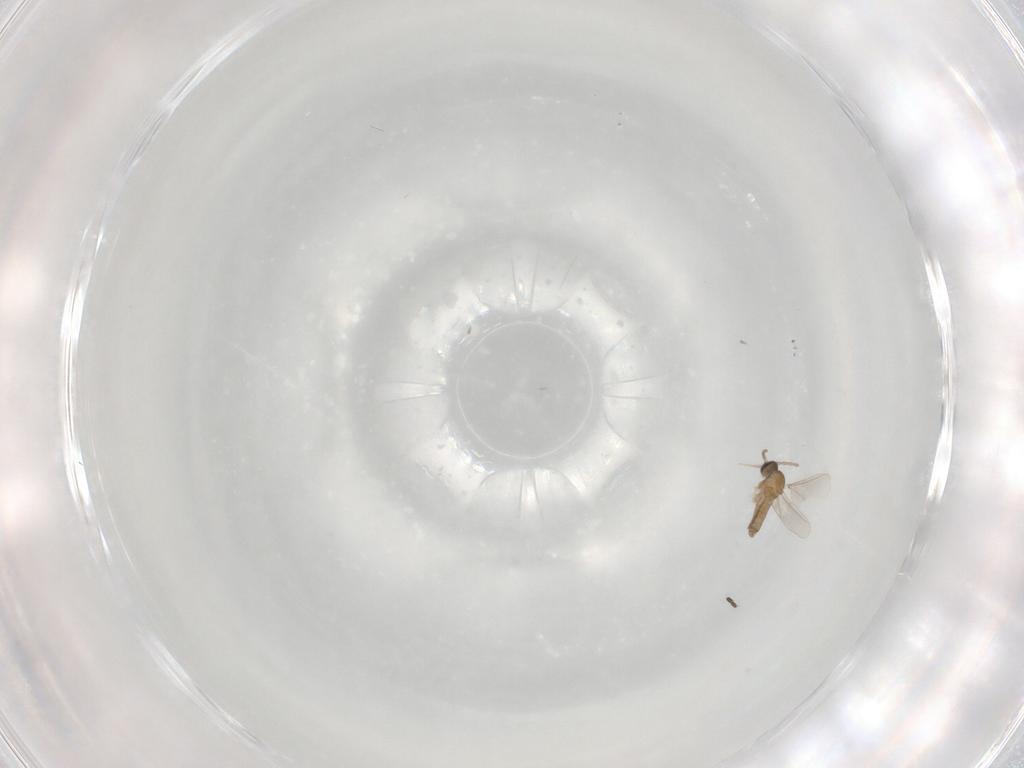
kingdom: Animalia
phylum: Arthropoda
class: Insecta
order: Diptera
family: Sciaridae
